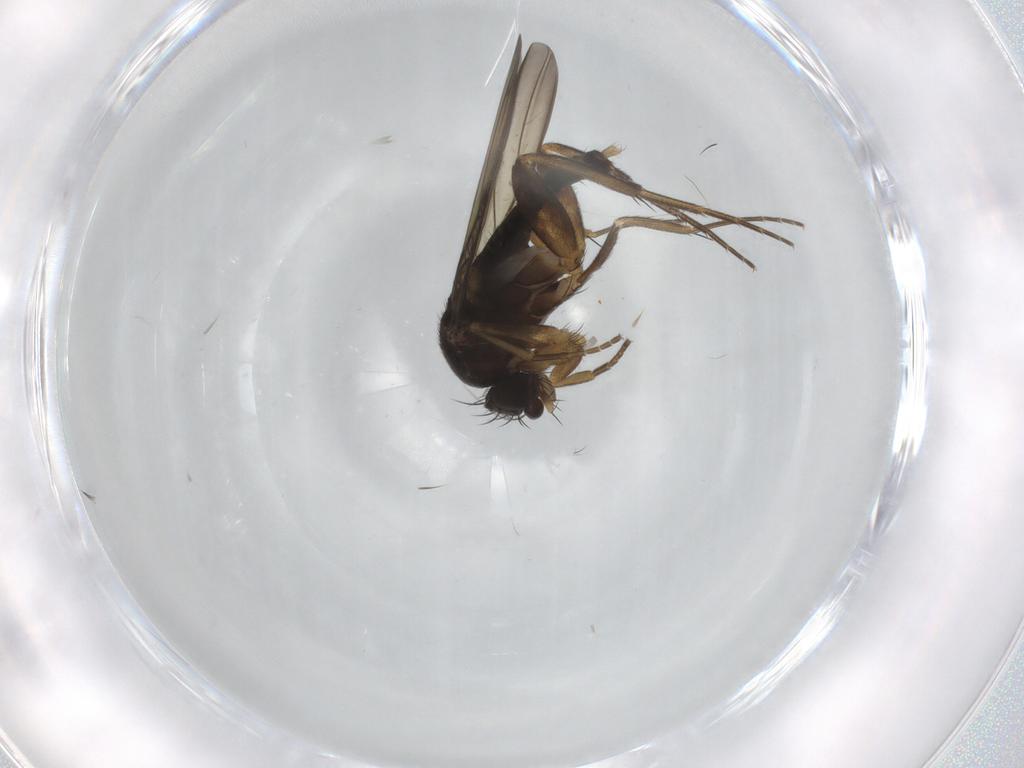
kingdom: Animalia
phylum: Arthropoda
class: Insecta
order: Diptera
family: Phoridae
